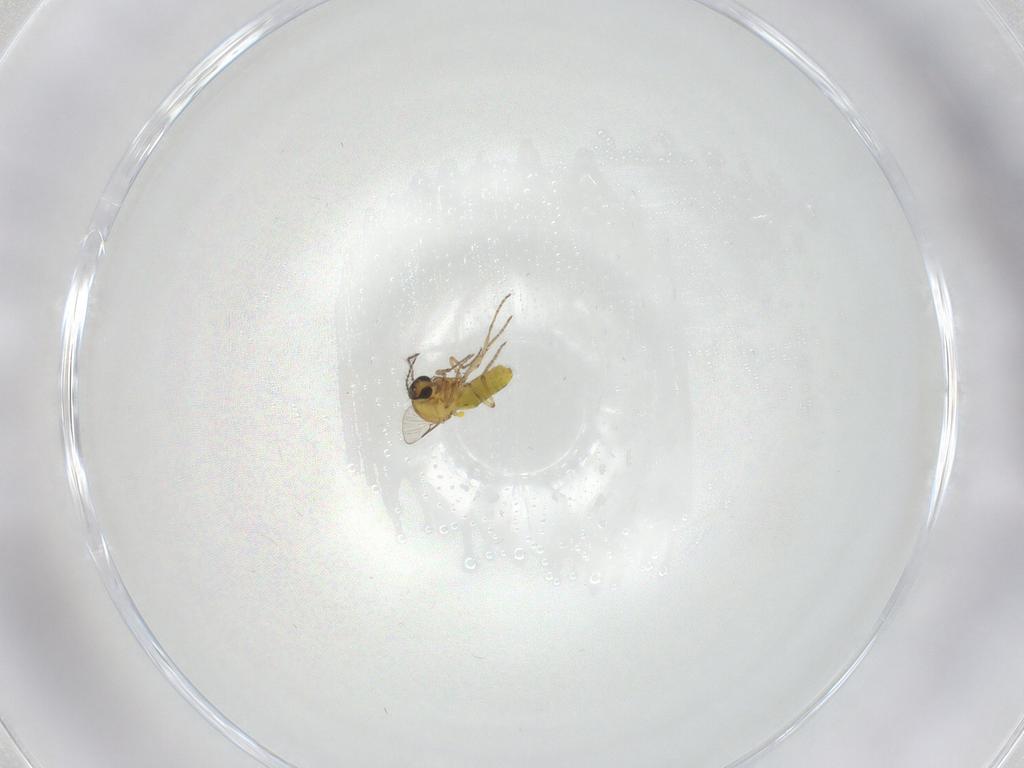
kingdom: Animalia
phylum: Arthropoda
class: Insecta
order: Diptera
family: Ceratopogonidae
